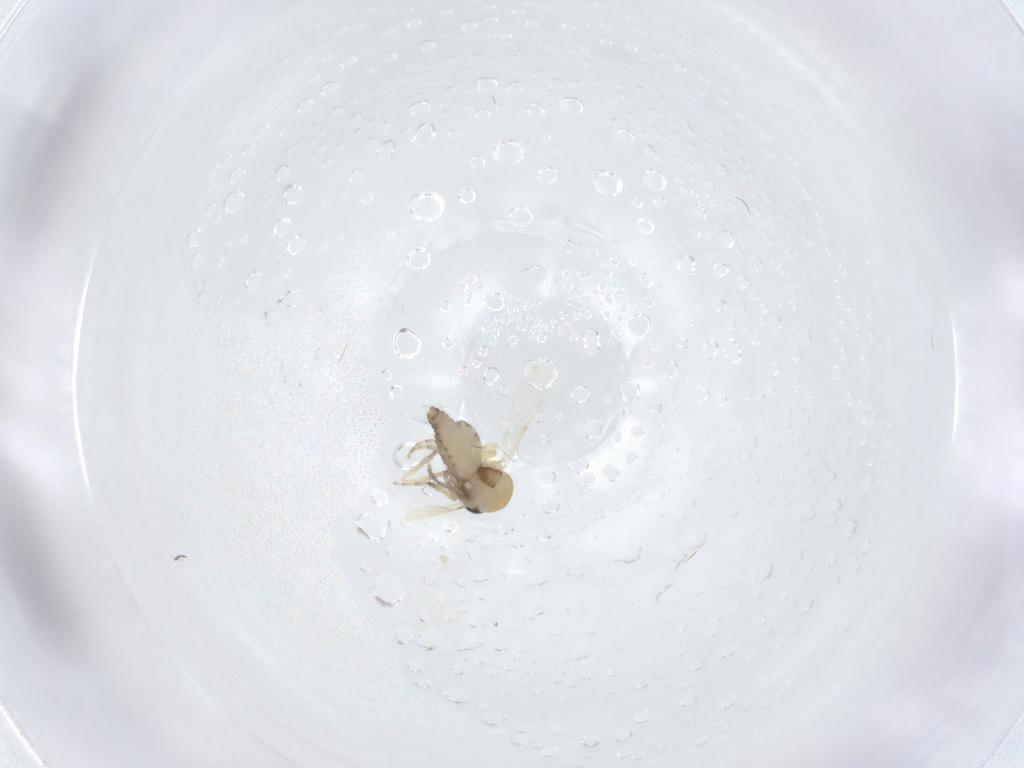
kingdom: Animalia
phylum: Arthropoda
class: Insecta
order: Diptera
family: Ceratopogonidae
